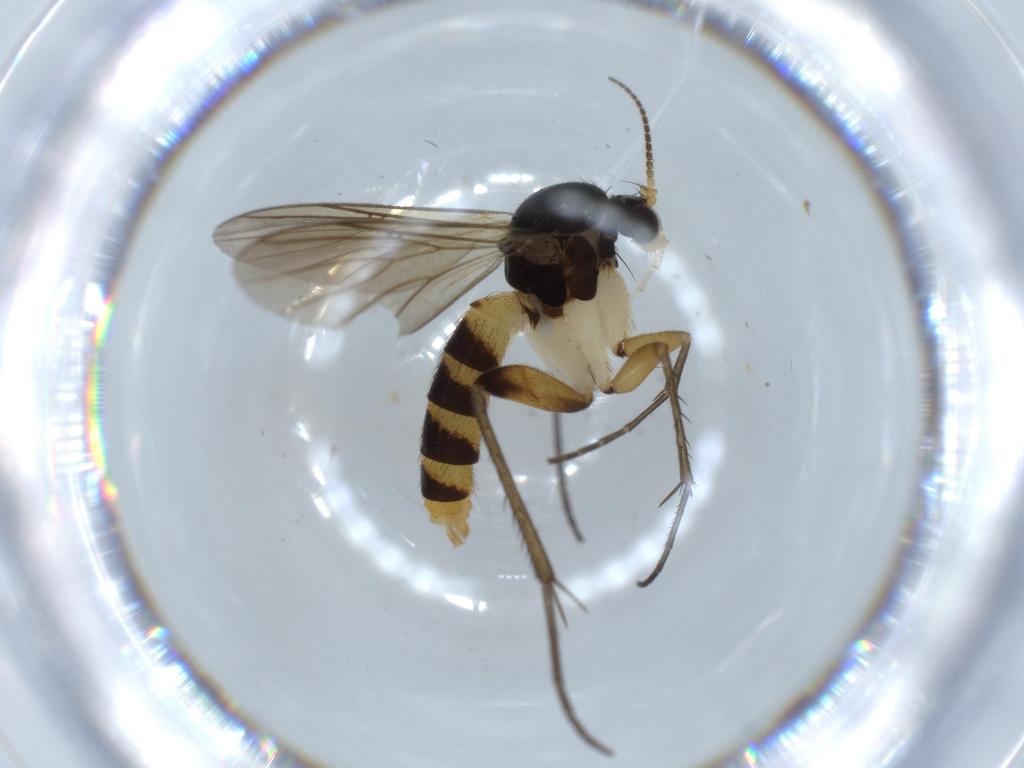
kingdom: Animalia
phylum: Arthropoda
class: Insecta
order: Diptera
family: Mycetophilidae
